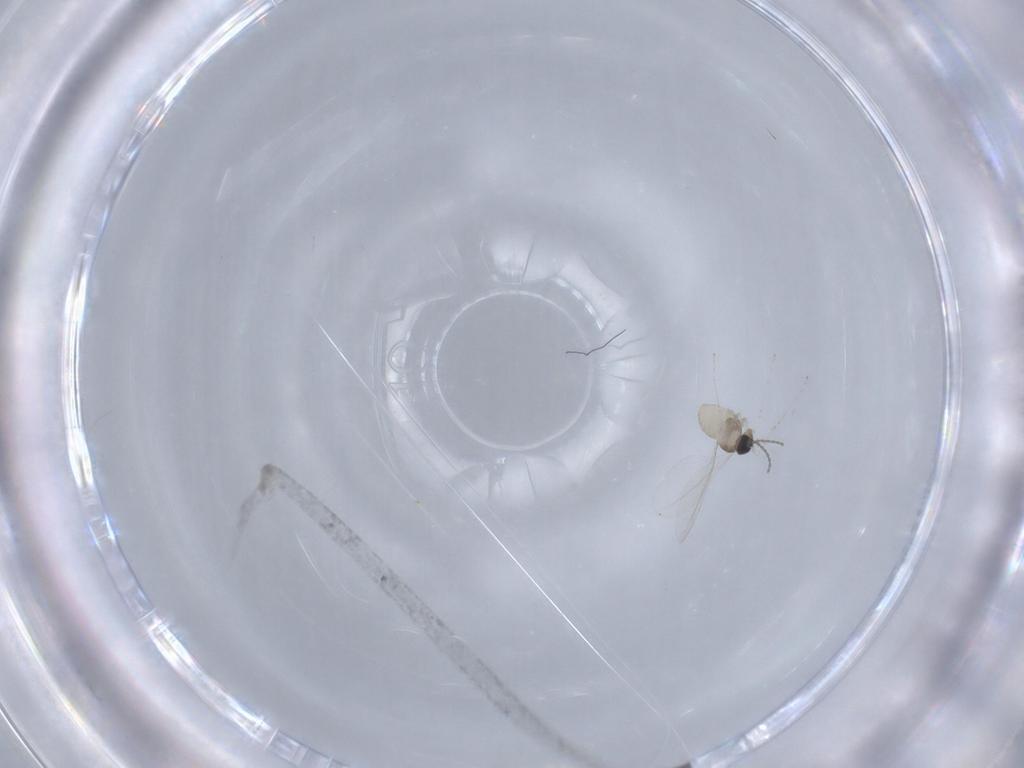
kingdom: Animalia
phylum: Arthropoda
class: Insecta
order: Diptera
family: Cecidomyiidae
